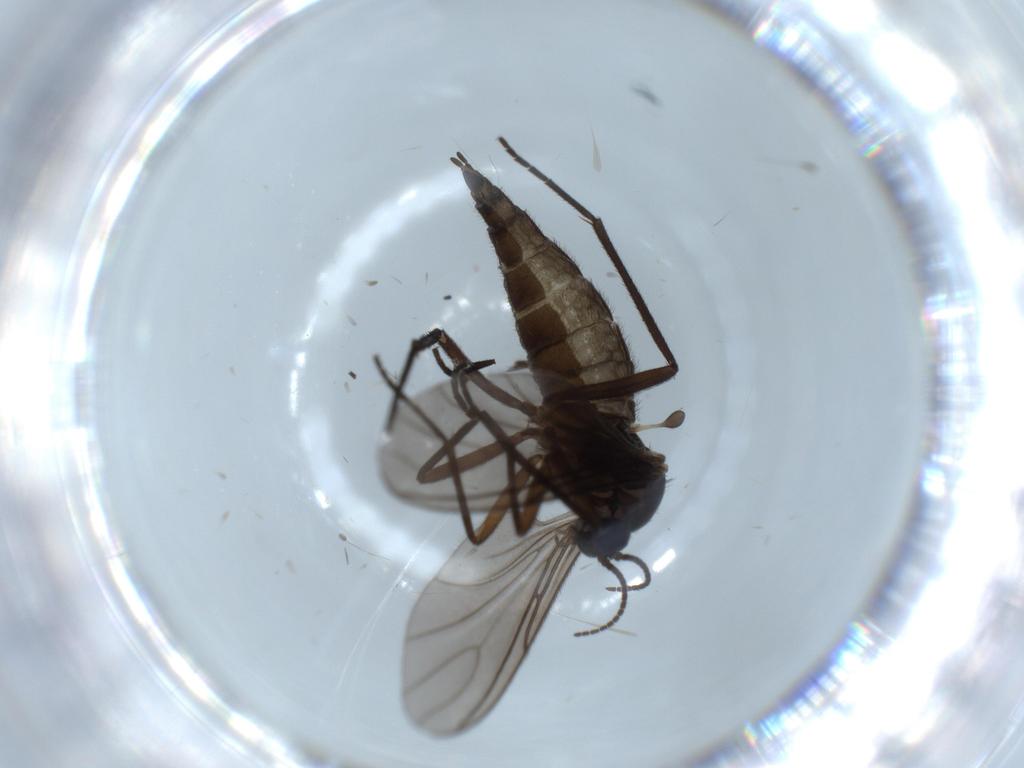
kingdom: Animalia
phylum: Arthropoda
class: Insecta
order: Diptera
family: Sciaridae
